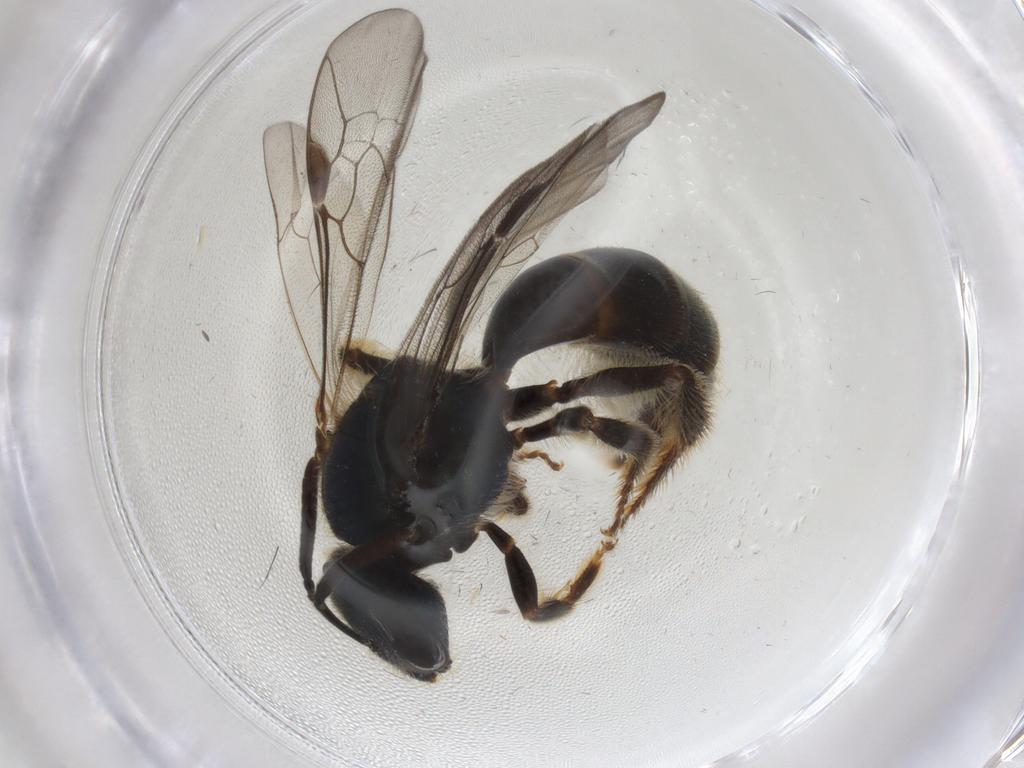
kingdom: Animalia
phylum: Arthropoda
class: Insecta
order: Hymenoptera
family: Halictidae
